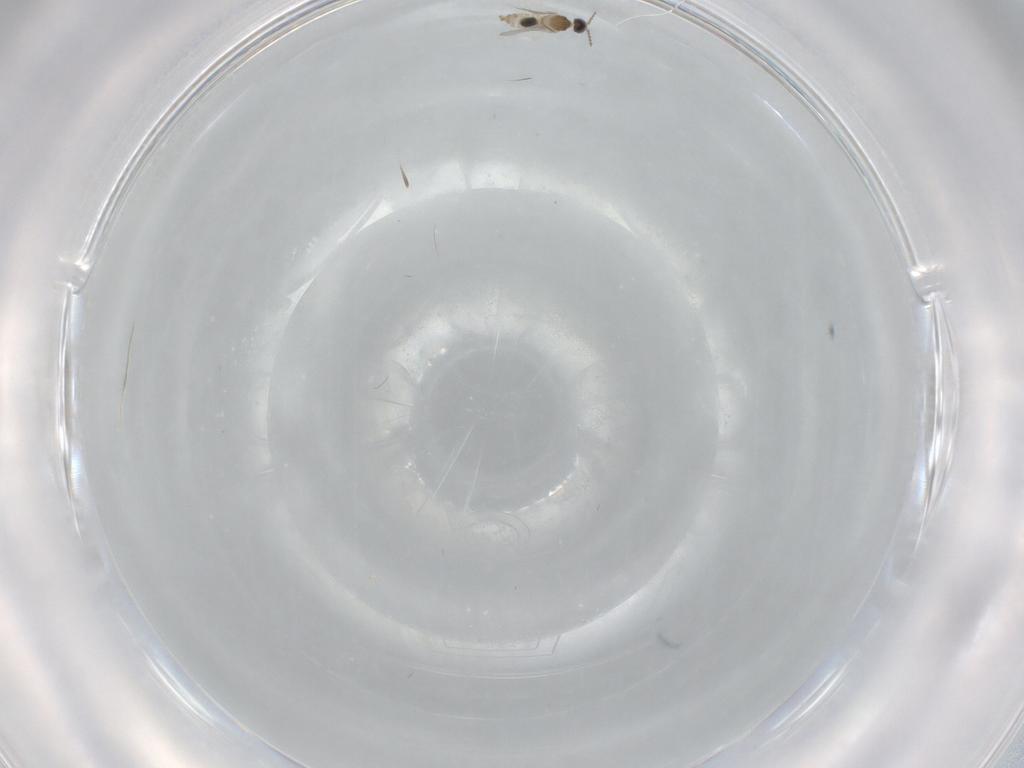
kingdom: Animalia
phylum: Arthropoda
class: Insecta
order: Diptera
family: Cecidomyiidae
